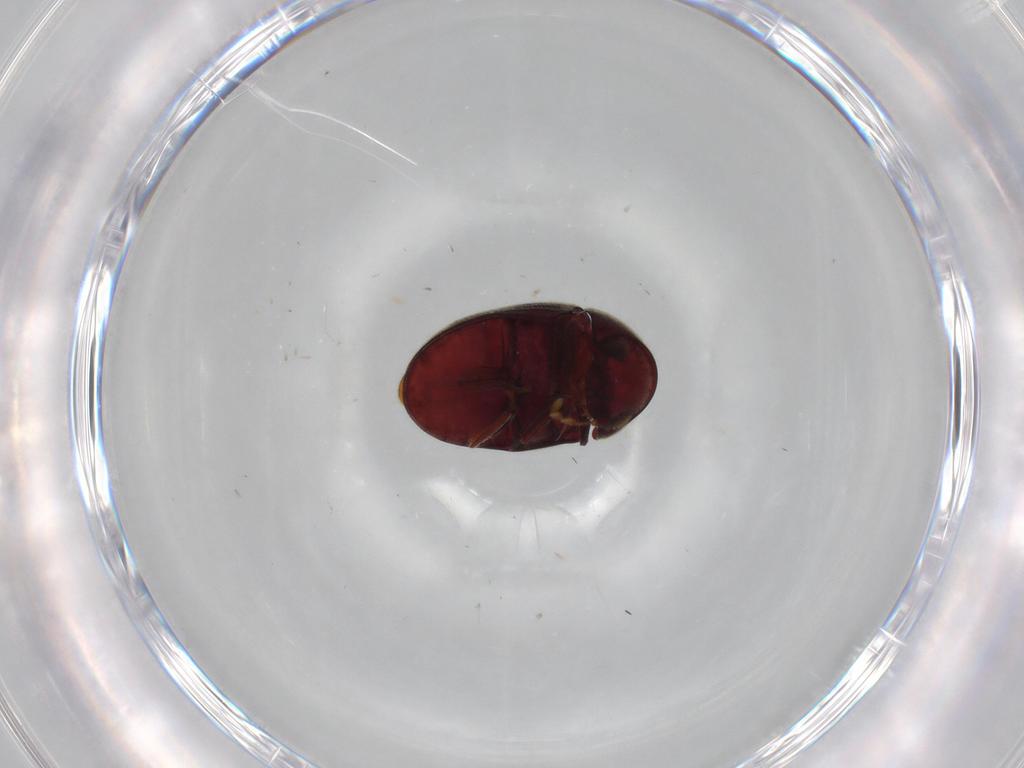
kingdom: Animalia
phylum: Arthropoda
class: Insecta
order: Coleoptera
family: Ptinidae
